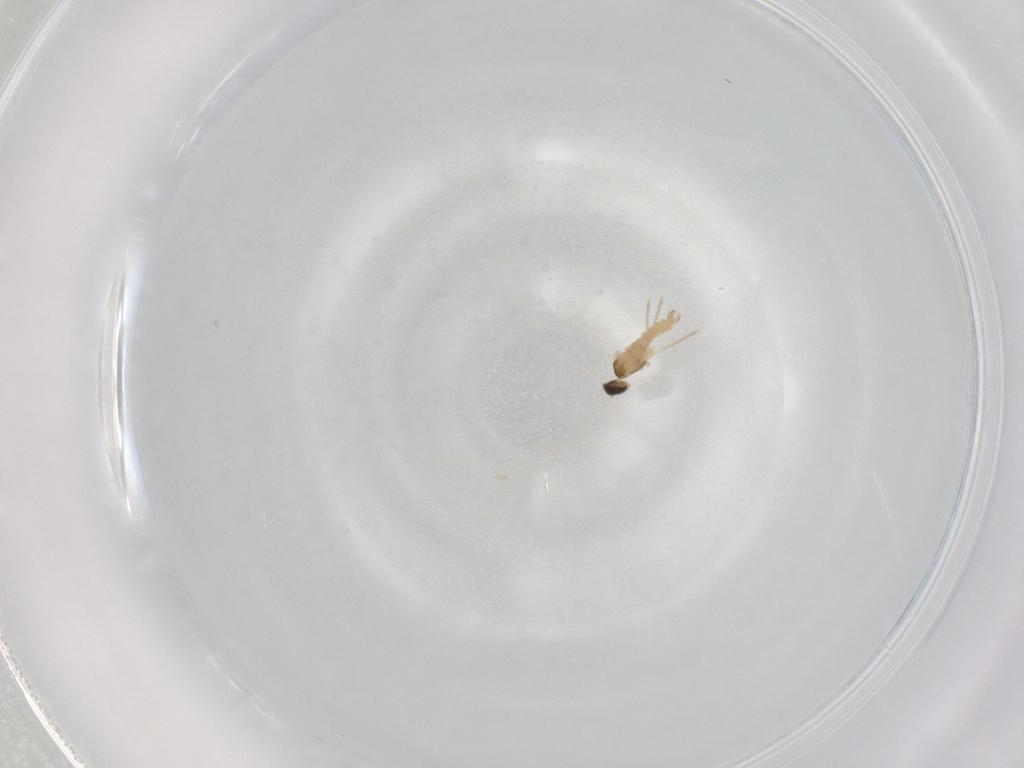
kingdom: Animalia
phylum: Arthropoda
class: Insecta
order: Diptera
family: Cecidomyiidae
